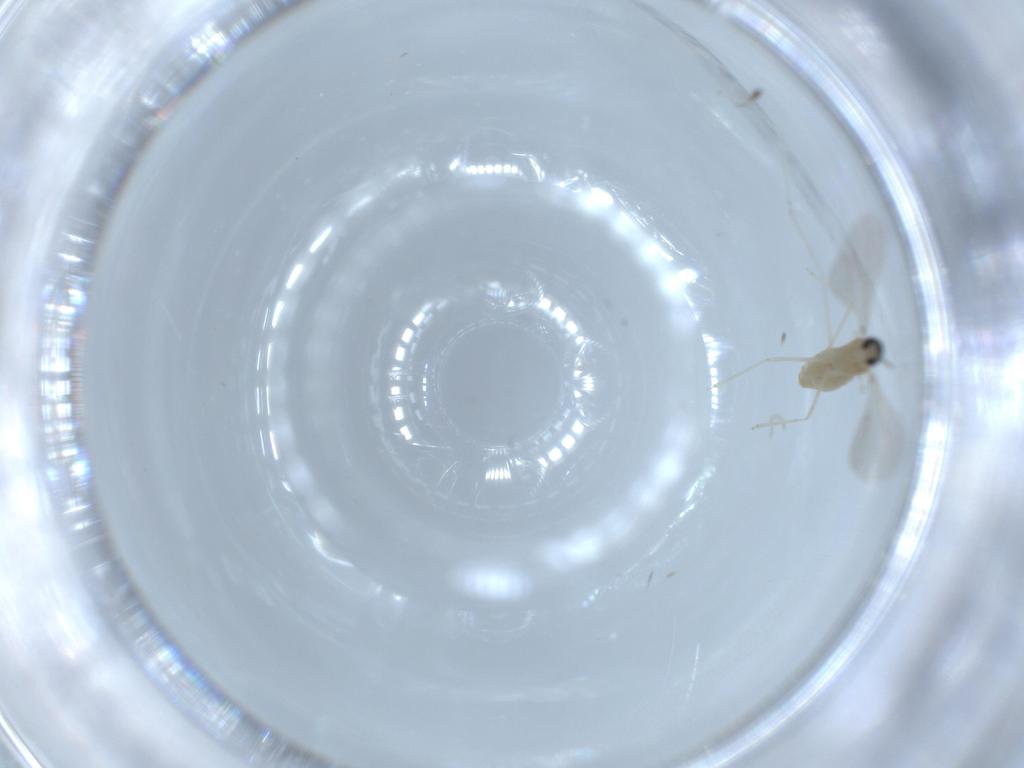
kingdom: Animalia
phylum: Arthropoda
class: Insecta
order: Diptera
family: Cecidomyiidae
